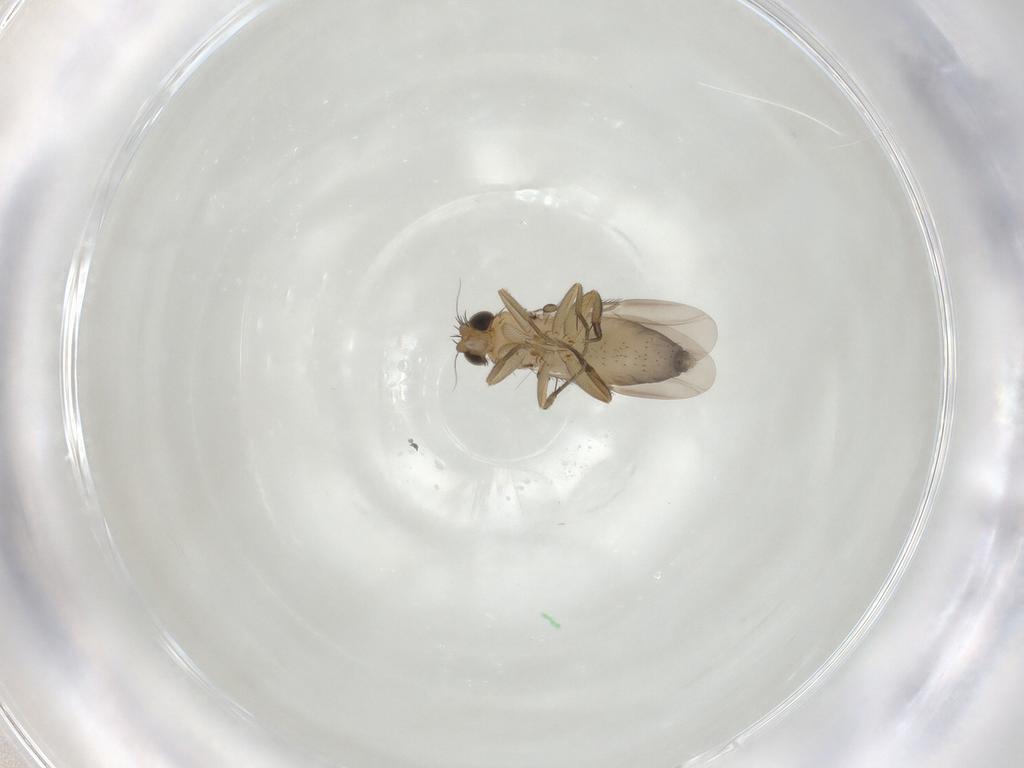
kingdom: Animalia
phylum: Arthropoda
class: Insecta
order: Diptera
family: Phoridae
